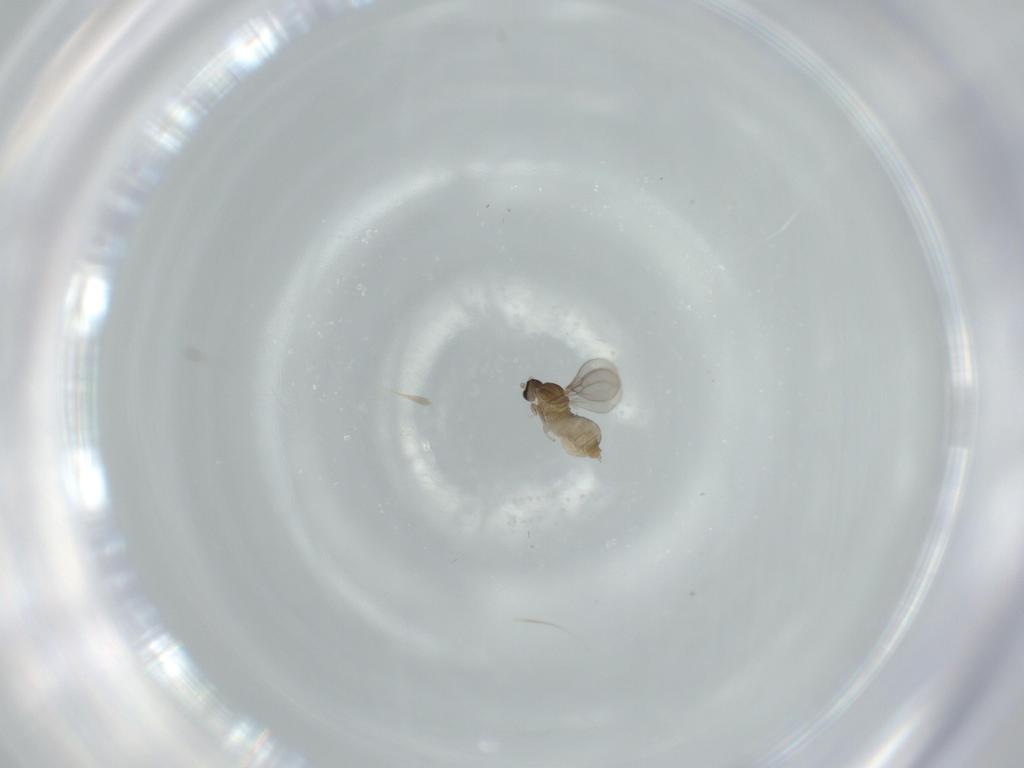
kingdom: Animalia
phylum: Arthropoda
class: Insecta
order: Diptera
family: Cecidomyiidae
